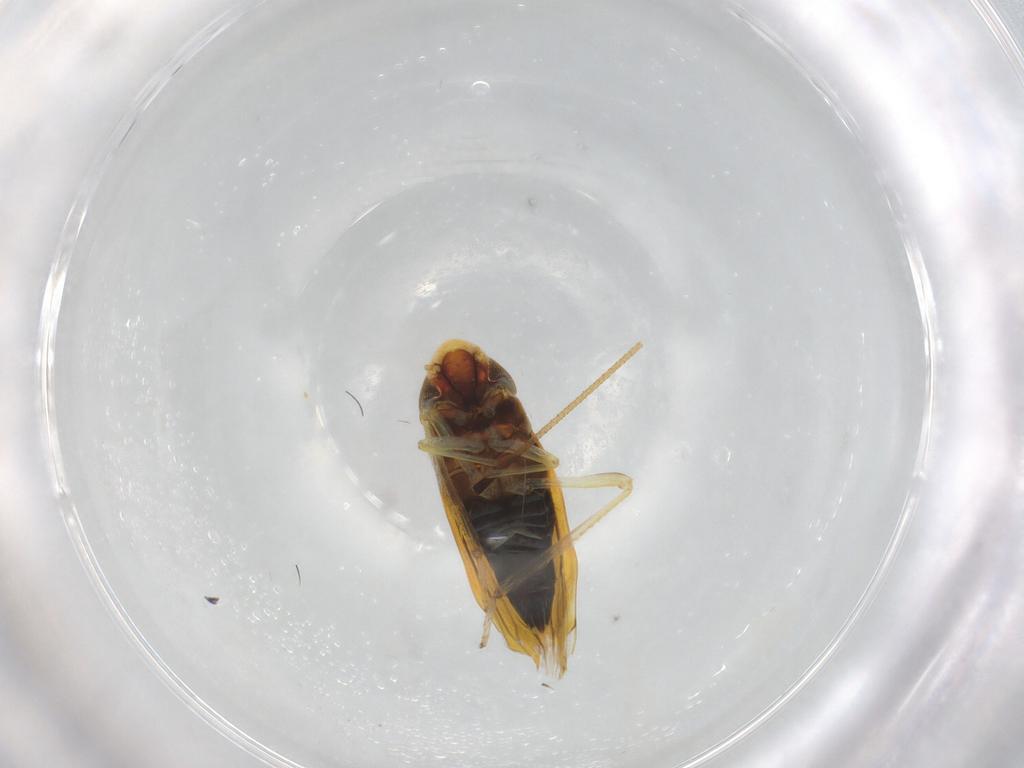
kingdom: Animalia
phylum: Arthropoda
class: Insecta
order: Hemiptera
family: Cicadellidae
